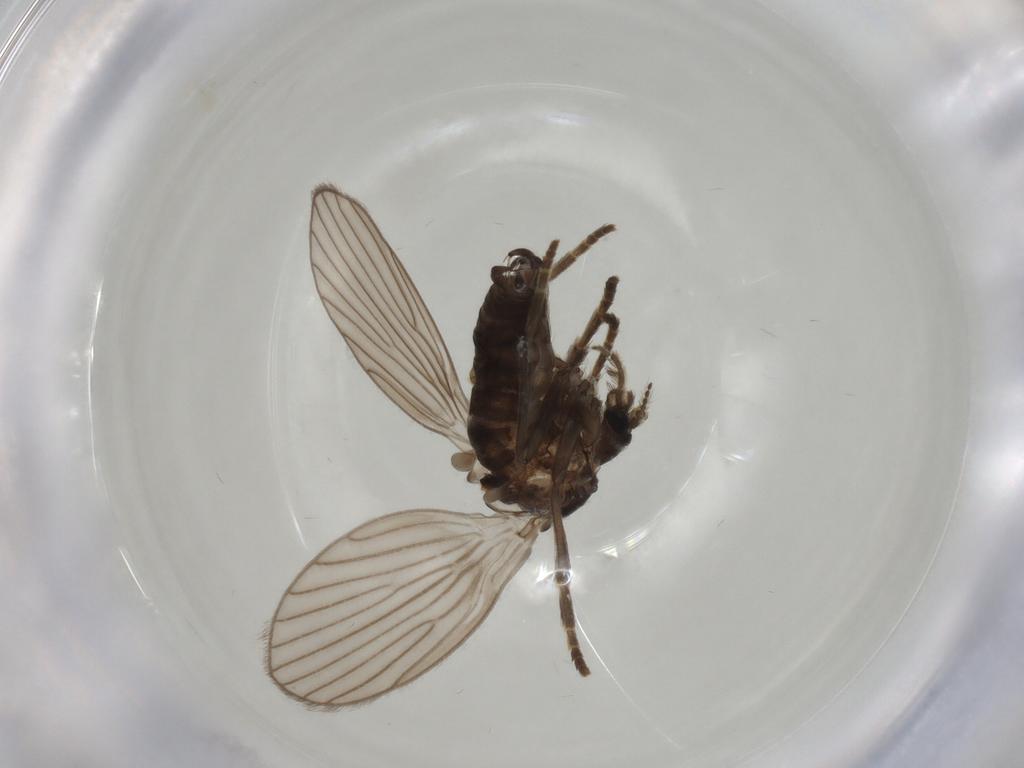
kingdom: Animalia
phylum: Arthropoda
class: Insecta
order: Diptera
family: Psychodidae
